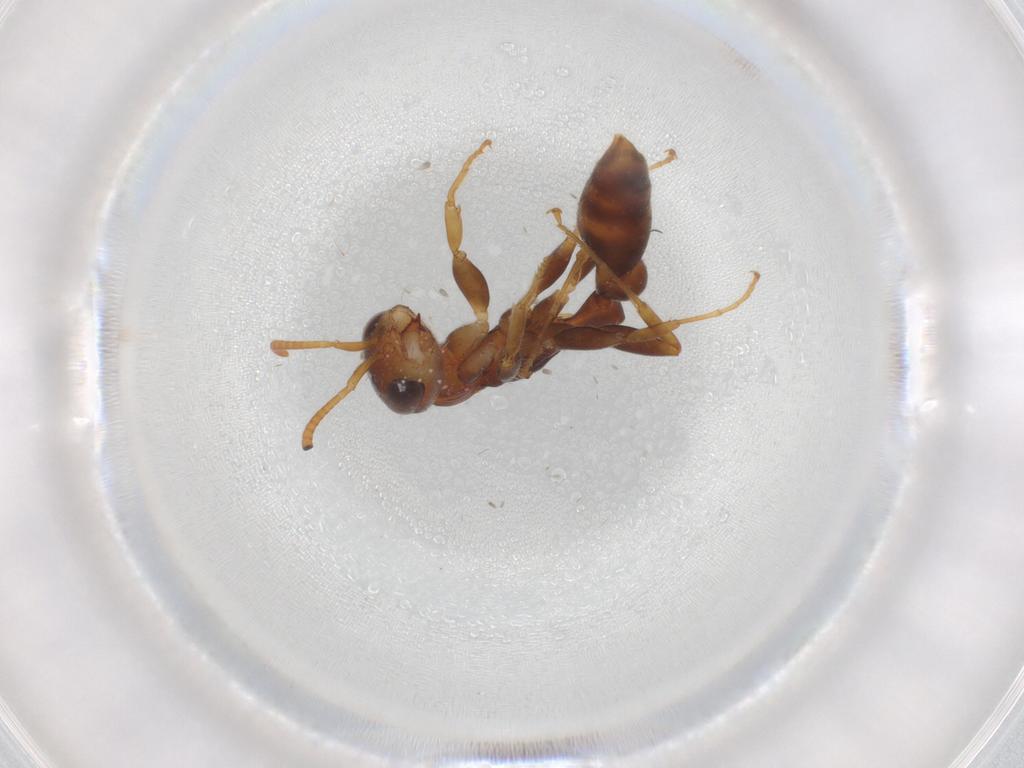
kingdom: Animalia
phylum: Arthropoda
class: Insecta
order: Hymenoptera
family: Formicidae
